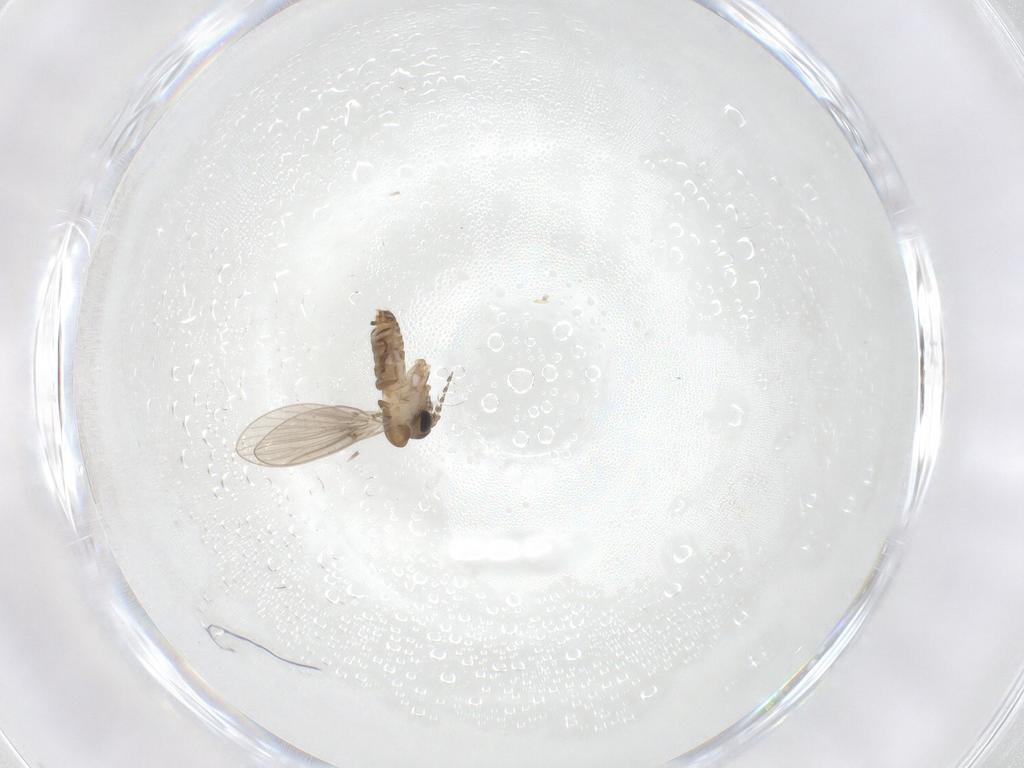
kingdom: Animalia
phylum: Arthropoda
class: Insecta
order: Diptera
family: Psychodidae
